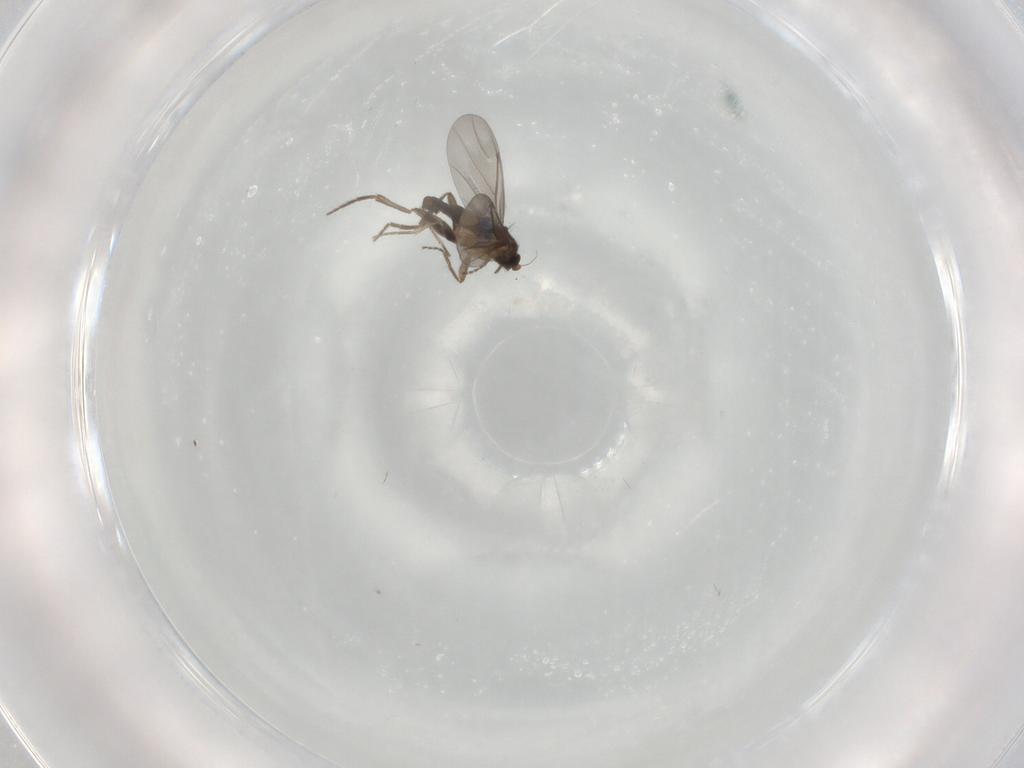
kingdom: Animalia
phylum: Arthropoda
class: Insecta
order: Diptera
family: Phoridae
